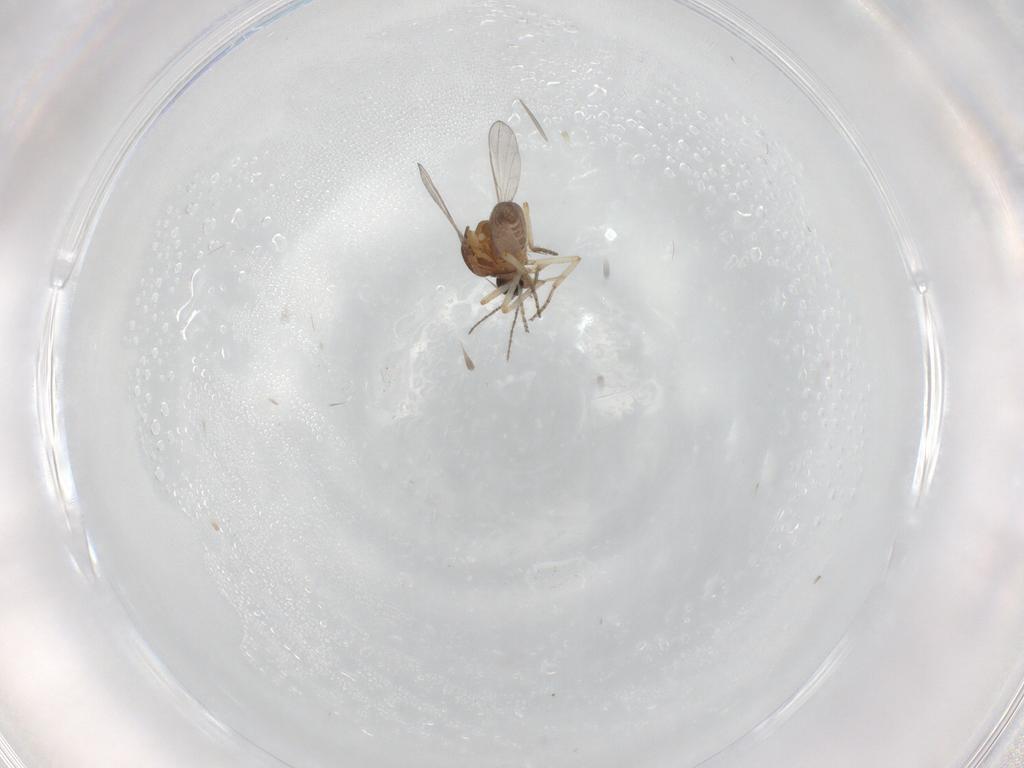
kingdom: Animalia
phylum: Arthropoda
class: Insecta
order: Diptera
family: Ceratopogonidae
